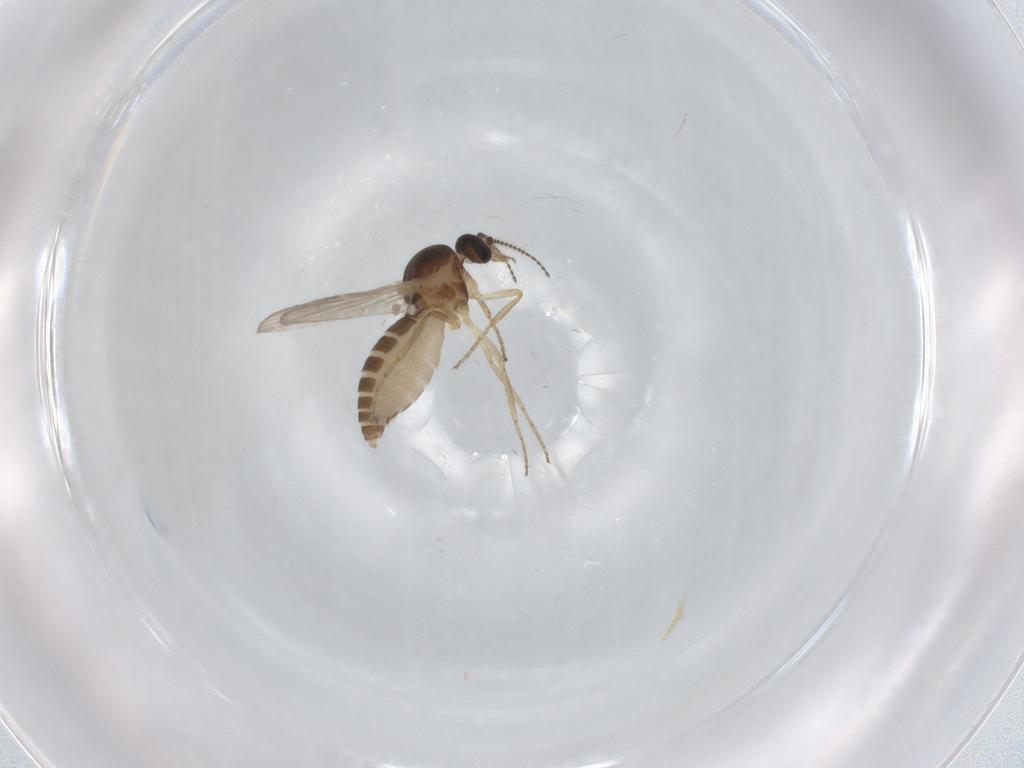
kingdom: Animalia
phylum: Arthropoda
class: Insecta
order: Diptera
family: Ceratopogonidae
